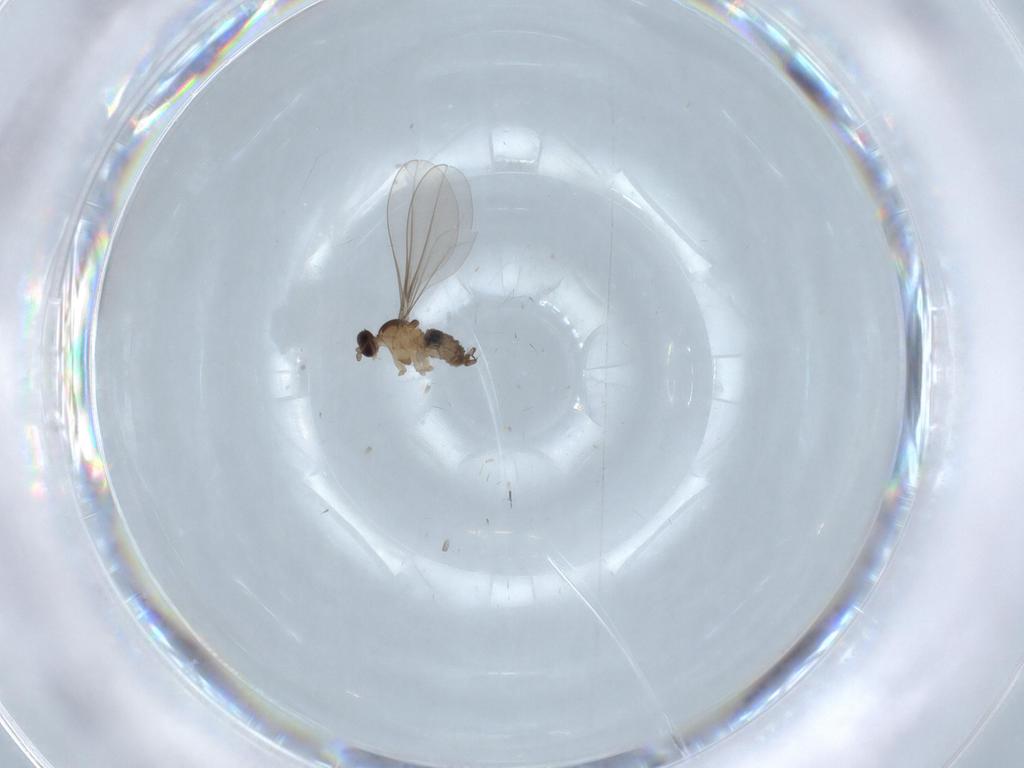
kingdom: Animalia
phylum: Arthropoda
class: Insecta
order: Diptera
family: Cecidomyiidae
